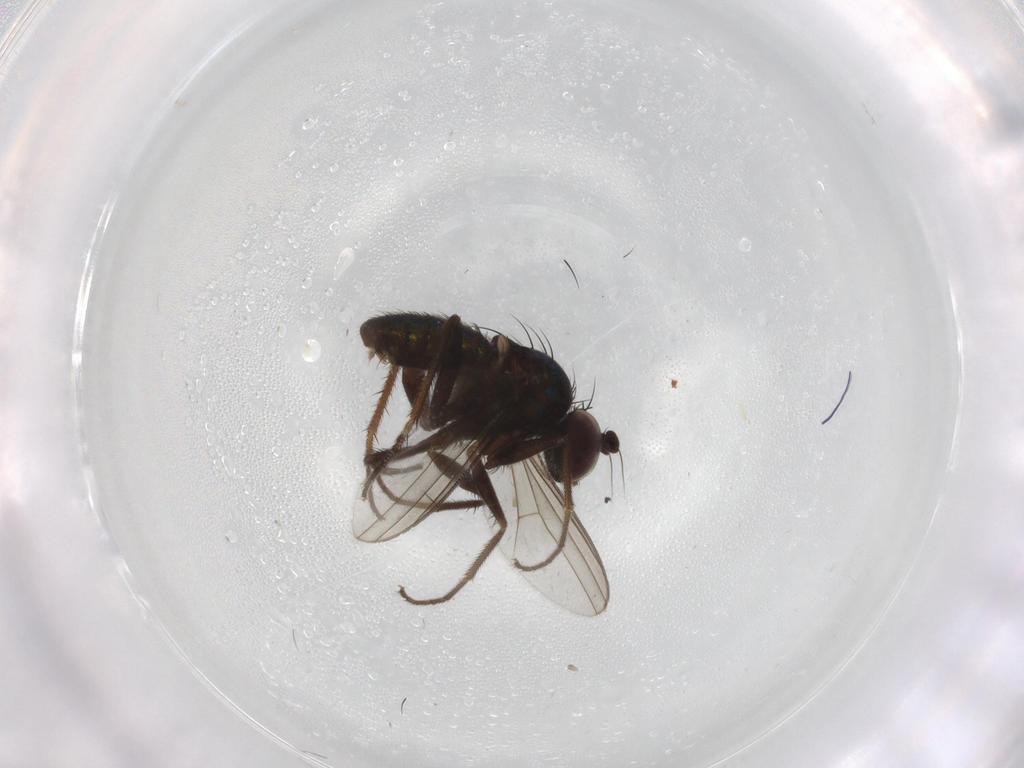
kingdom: Animalia
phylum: Arthropoda
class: Insecta
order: Diptera
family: Dolichopodidae
